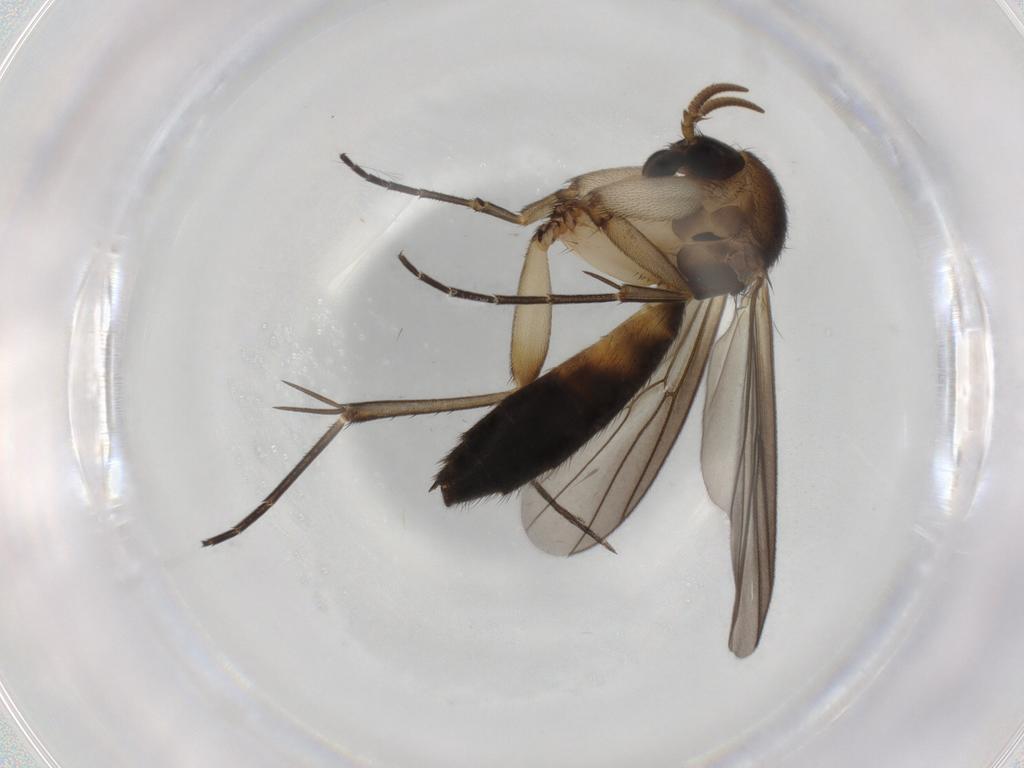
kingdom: Animalia
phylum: Arthropoda
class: Insecta
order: Diptera
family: Mycetophilidae
